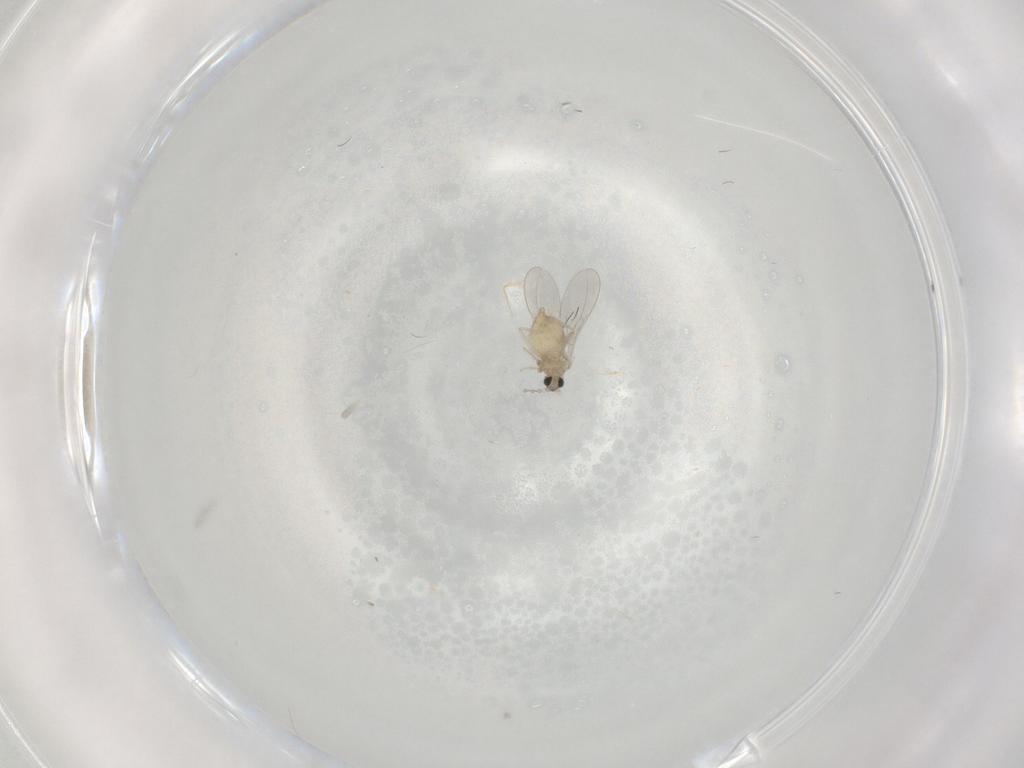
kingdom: Animalia
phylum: Arthropoda
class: Insecta
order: Diptera
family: Cecidomyiidae
